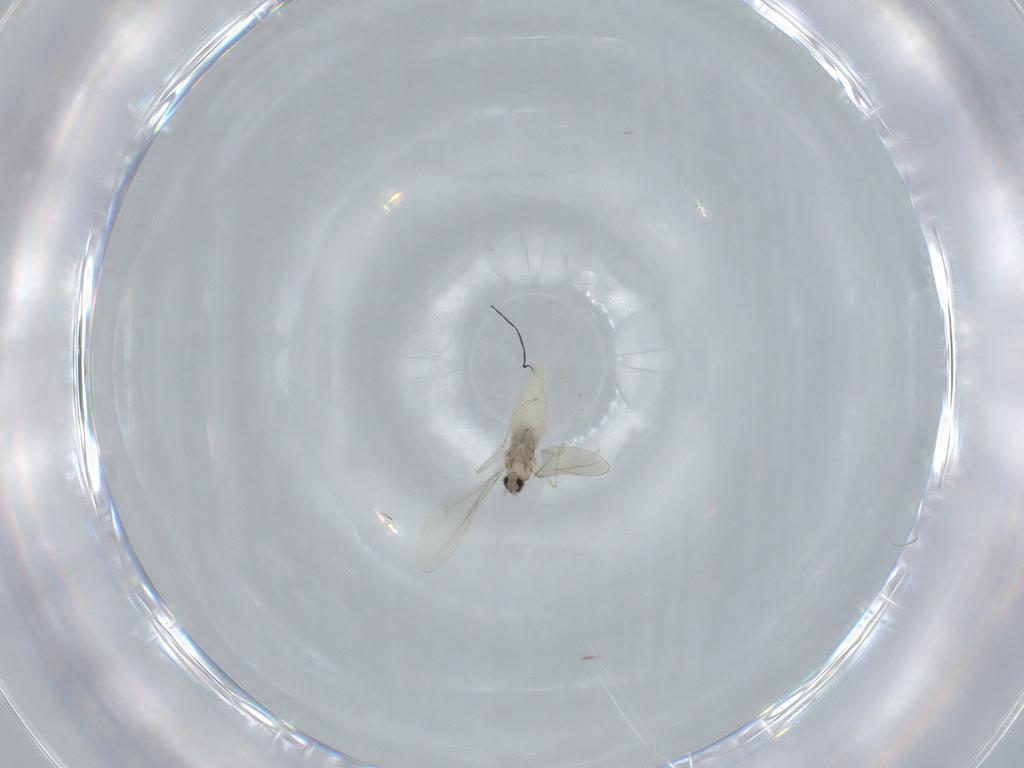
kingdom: Animalia
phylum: Arthropoda
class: Insecta
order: Diptera
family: Cecidomyiidae
